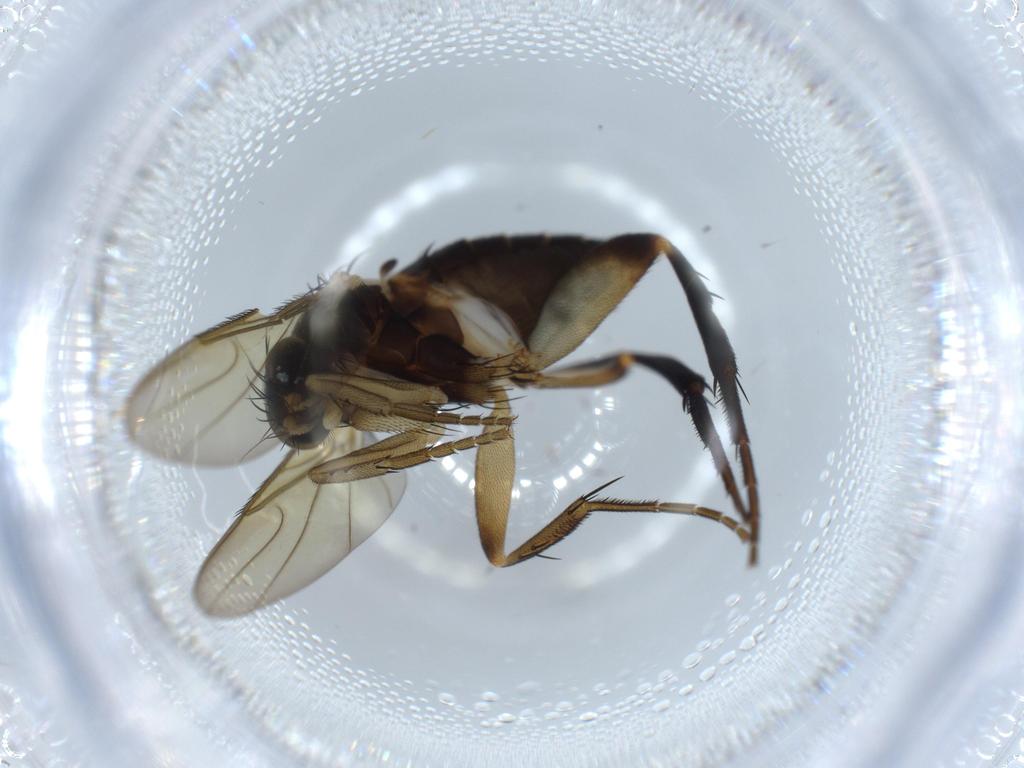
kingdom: Animalia
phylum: Arthropoda
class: Insecta
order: Diptera
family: Phoridae
